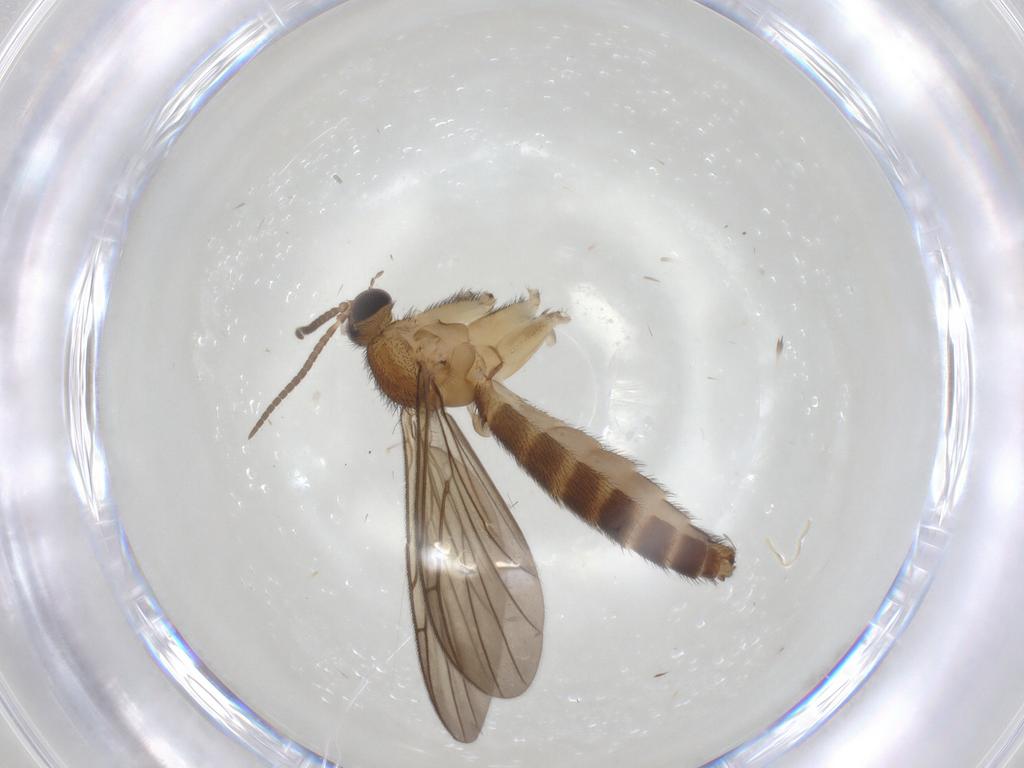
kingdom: Animalia
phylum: Arthropoda
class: Insecta
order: Diptera
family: Keroplatidae
